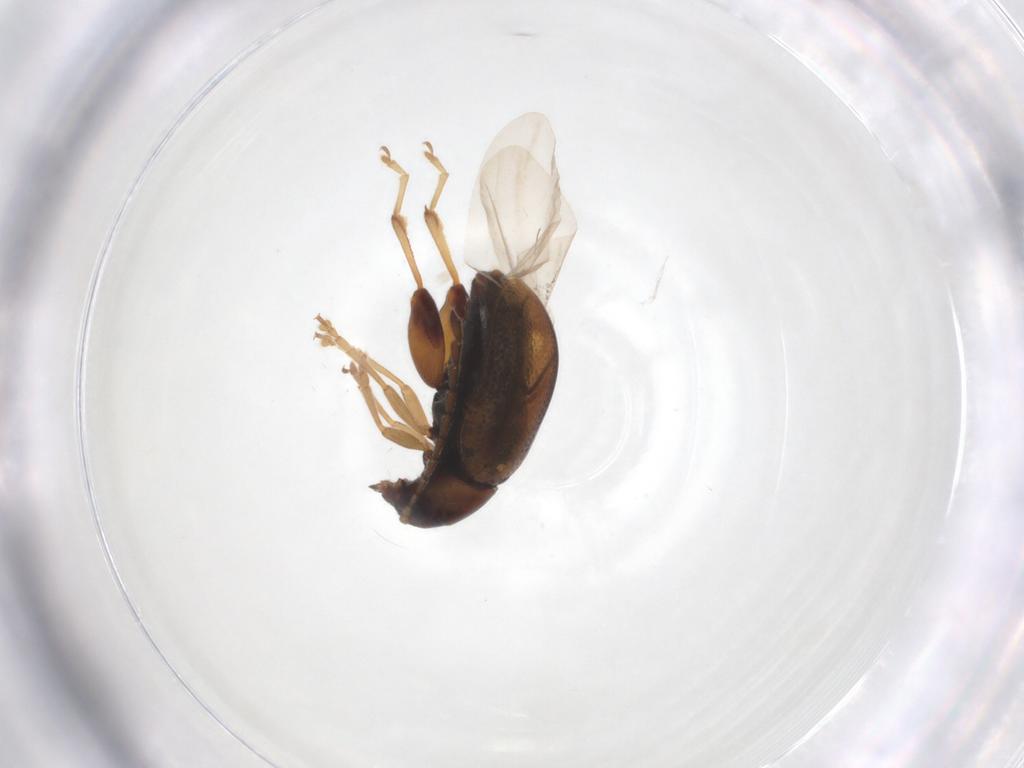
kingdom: Animalia
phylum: Arthropoda
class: Insecta
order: Coleoptera
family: Chrysomelidae
